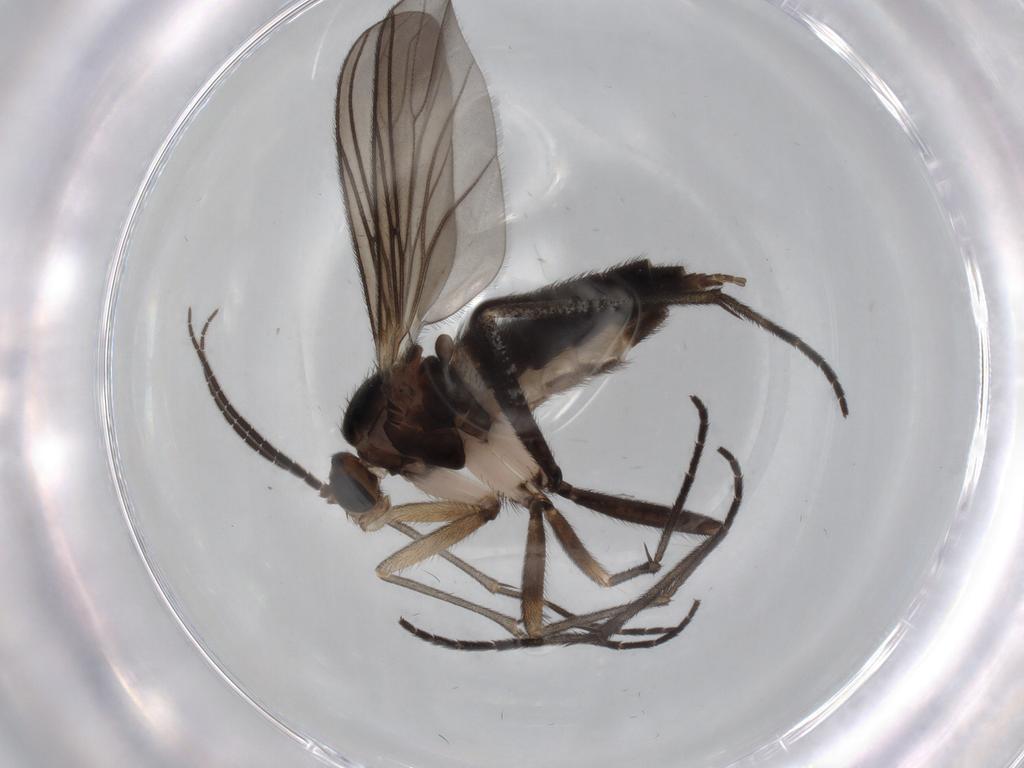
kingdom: Animalia
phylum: Arthropoda
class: Insecta
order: Diptera
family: Sciaridae
